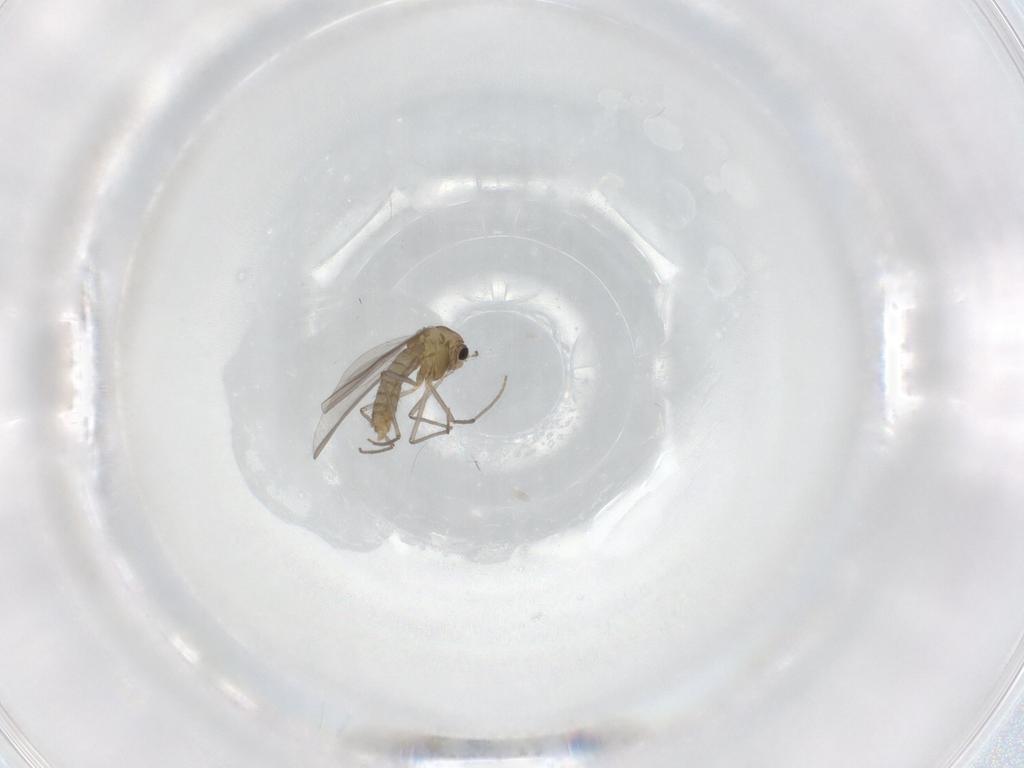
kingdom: Animalia
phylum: Arthropoda
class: Insecta
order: Diptera
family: Chironomidae
